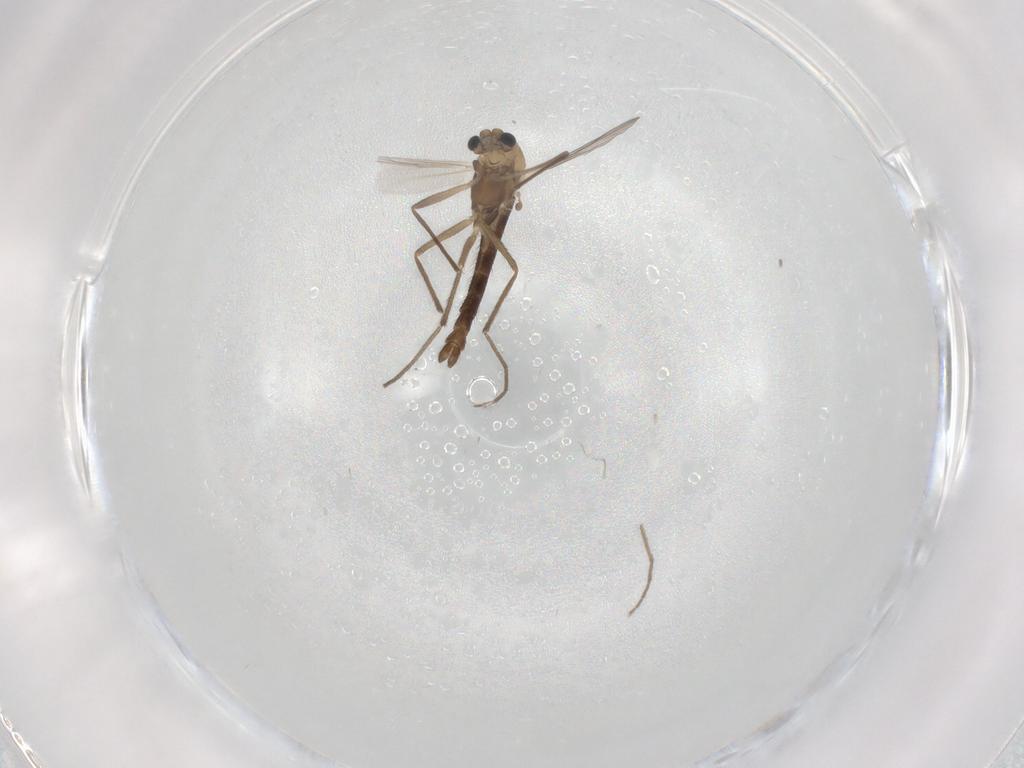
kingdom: Animalia
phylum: Arthropoda
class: Insecta
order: Diptera
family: Chironomidae
